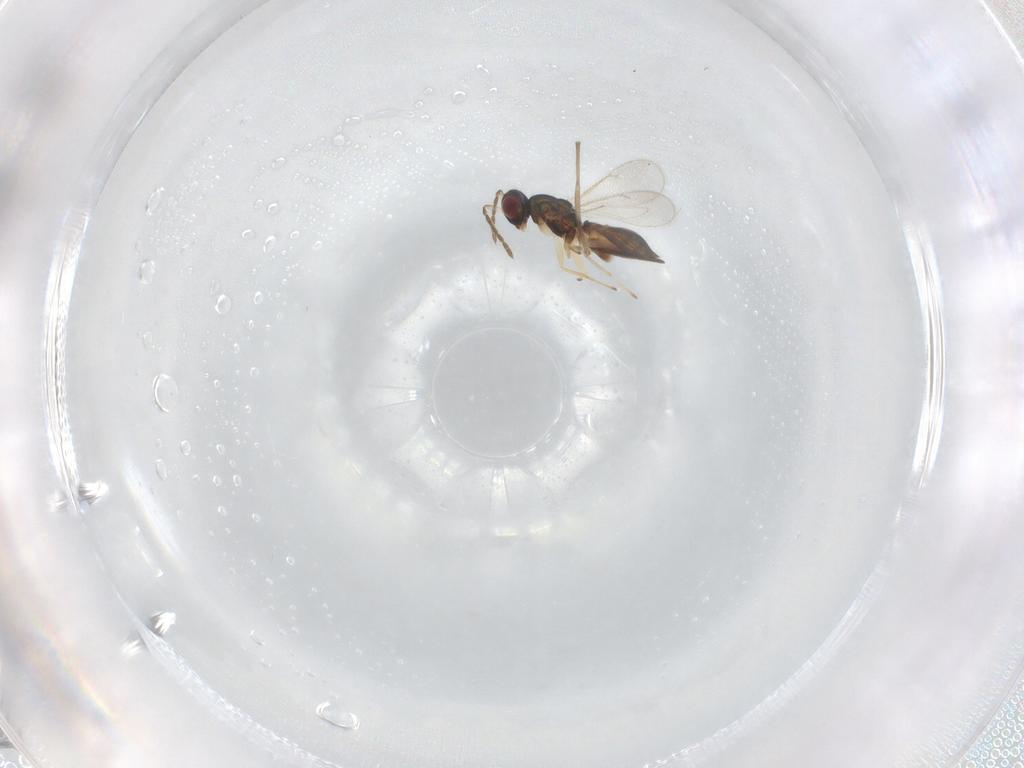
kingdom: Animalia
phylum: Arthropoda
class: Insecta
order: Hymenoptera
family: Eulophidae
